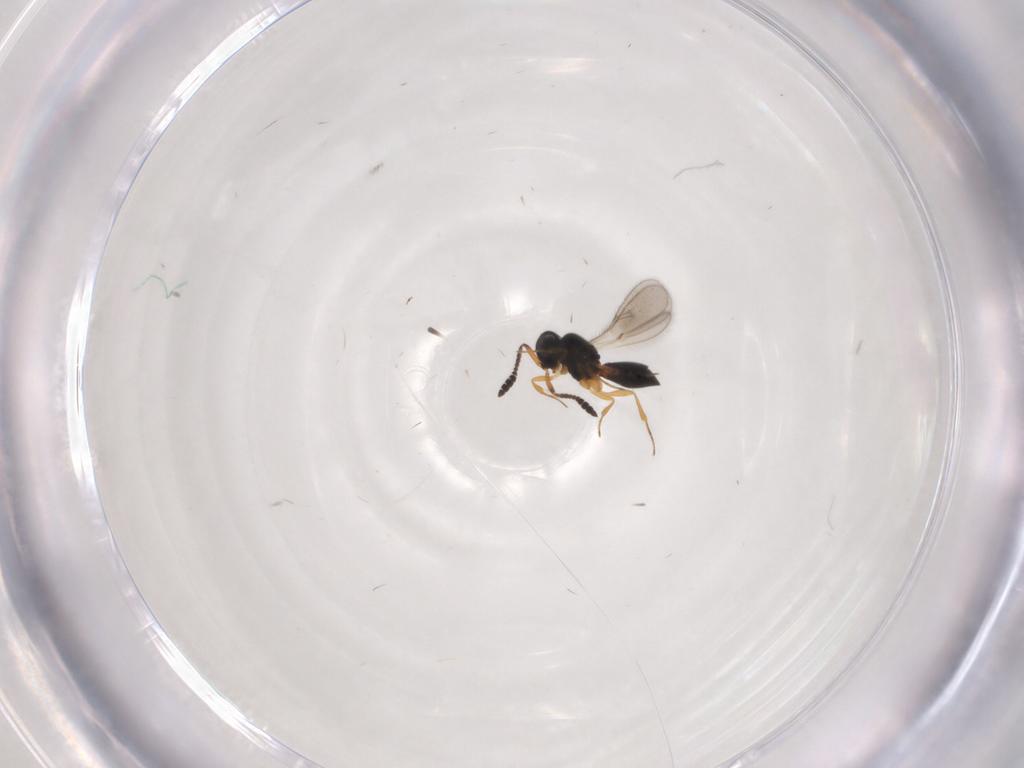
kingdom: Animalia
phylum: Arthropoda
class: Insecta
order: Hymenoptera
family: Scelionidae
